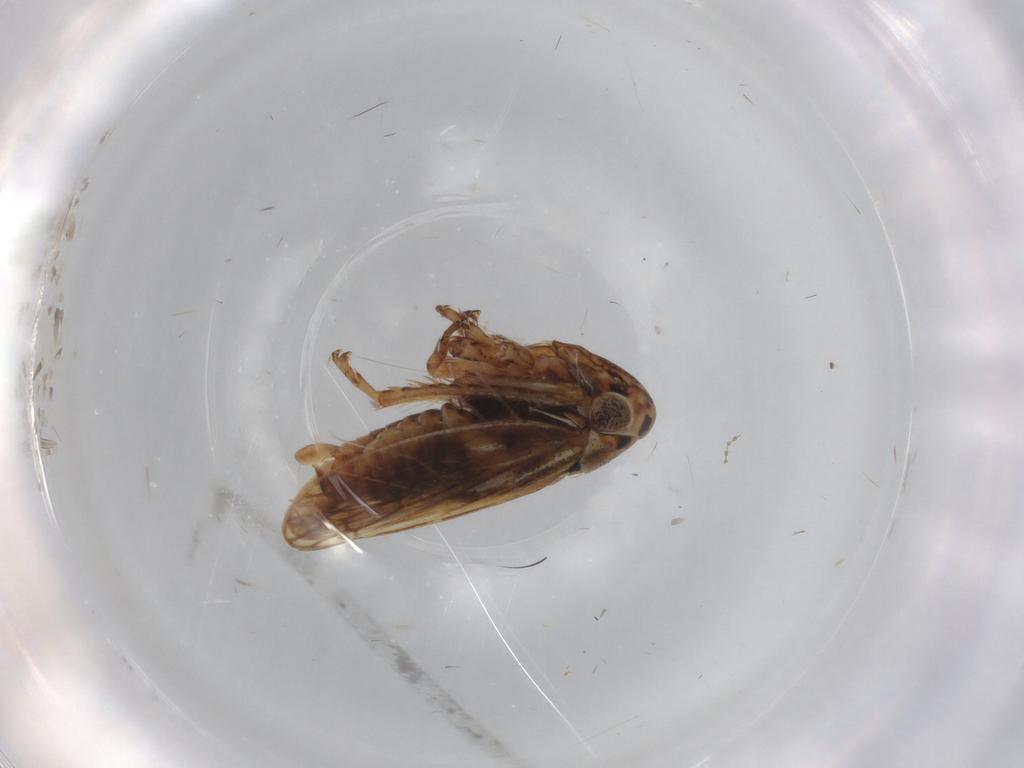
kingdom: Animalia
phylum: Arthropoda
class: Insecta
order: Hemiptera
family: Cicadellidae
